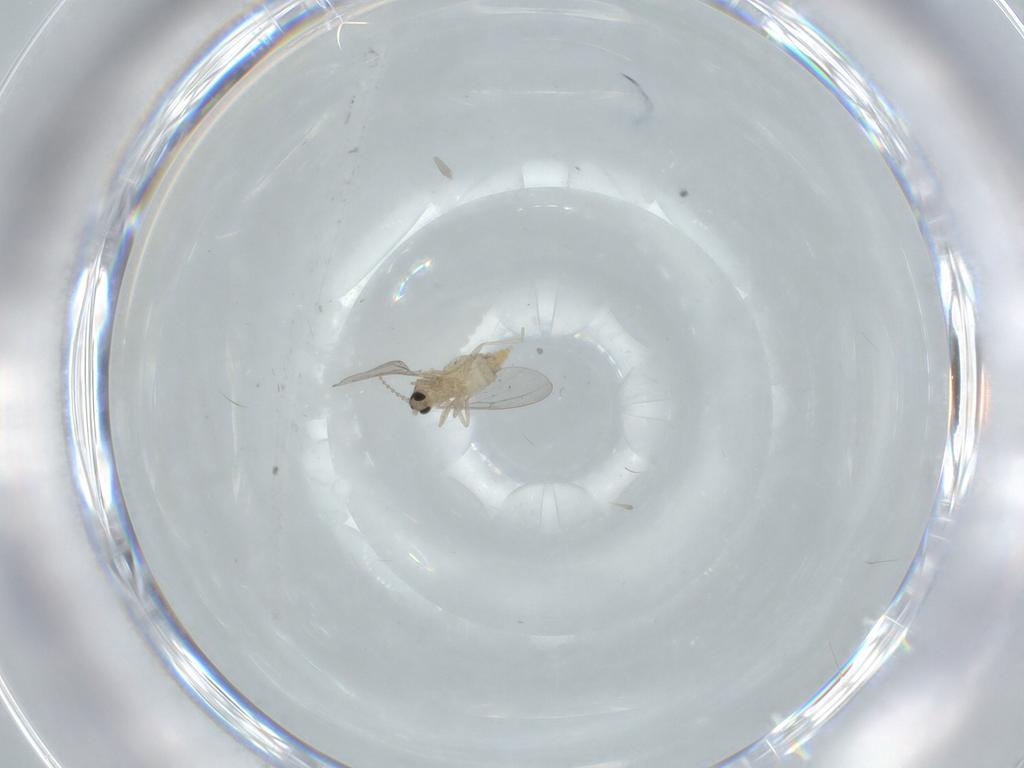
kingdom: Animalia
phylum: Arthropoda
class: Insecta
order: Diptera
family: Cecidomyiidae
